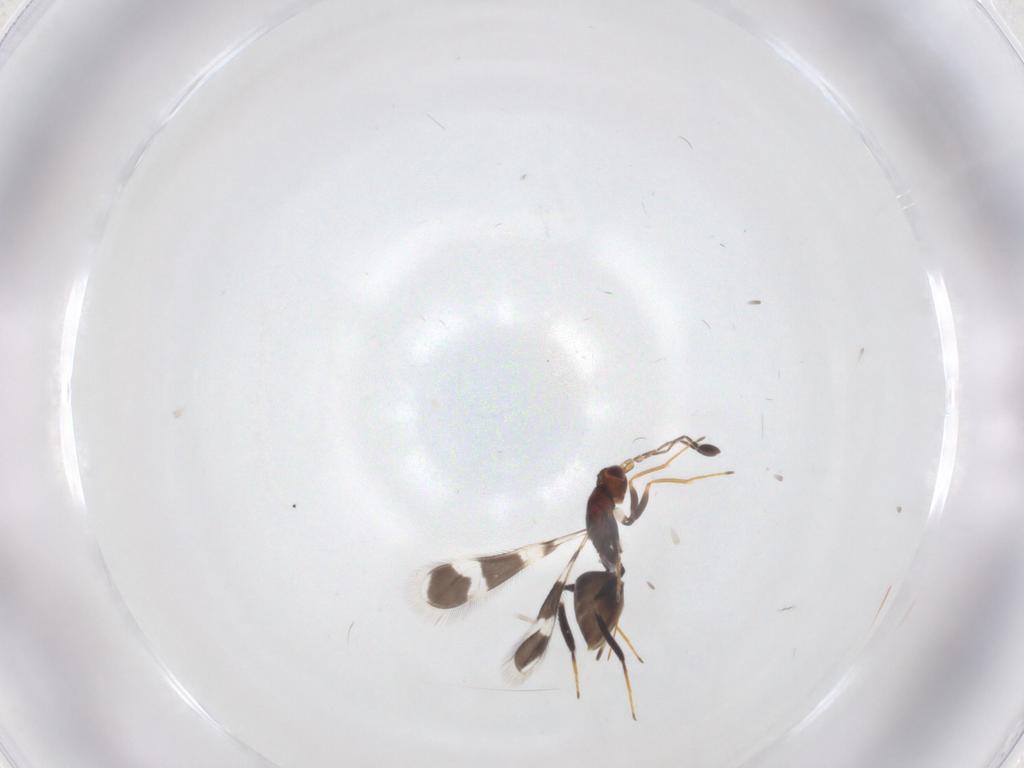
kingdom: Animalia
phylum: Arthropoda
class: Insecta
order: Hymenoptera
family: Mymaridae
